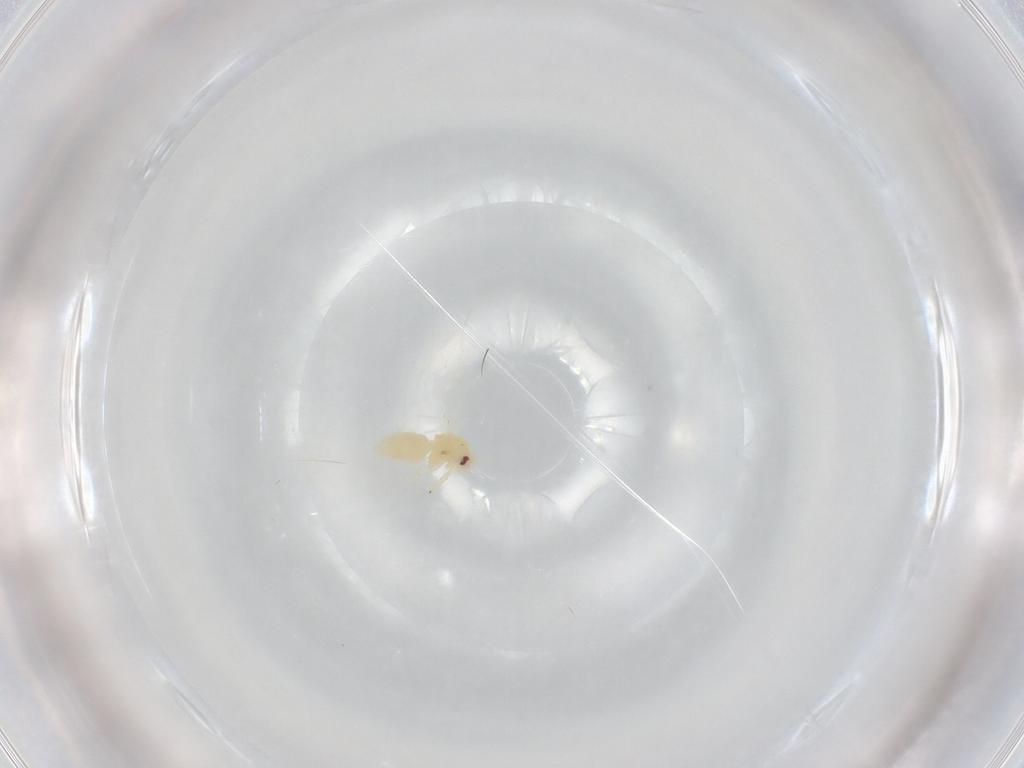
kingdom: Animalia
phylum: Arthropoda
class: Insecta
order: Hemiptera
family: Aleyrodidae
